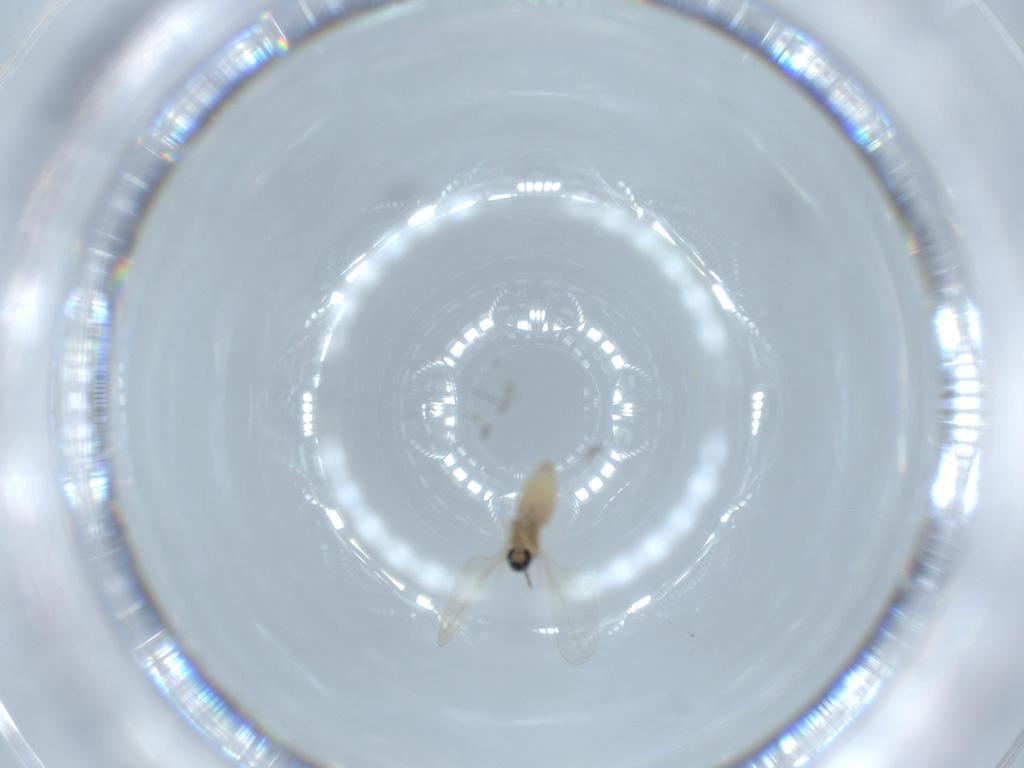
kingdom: Animalia
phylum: Arthropoda
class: Insecta
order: Diptera
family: Cecidomyiidae
